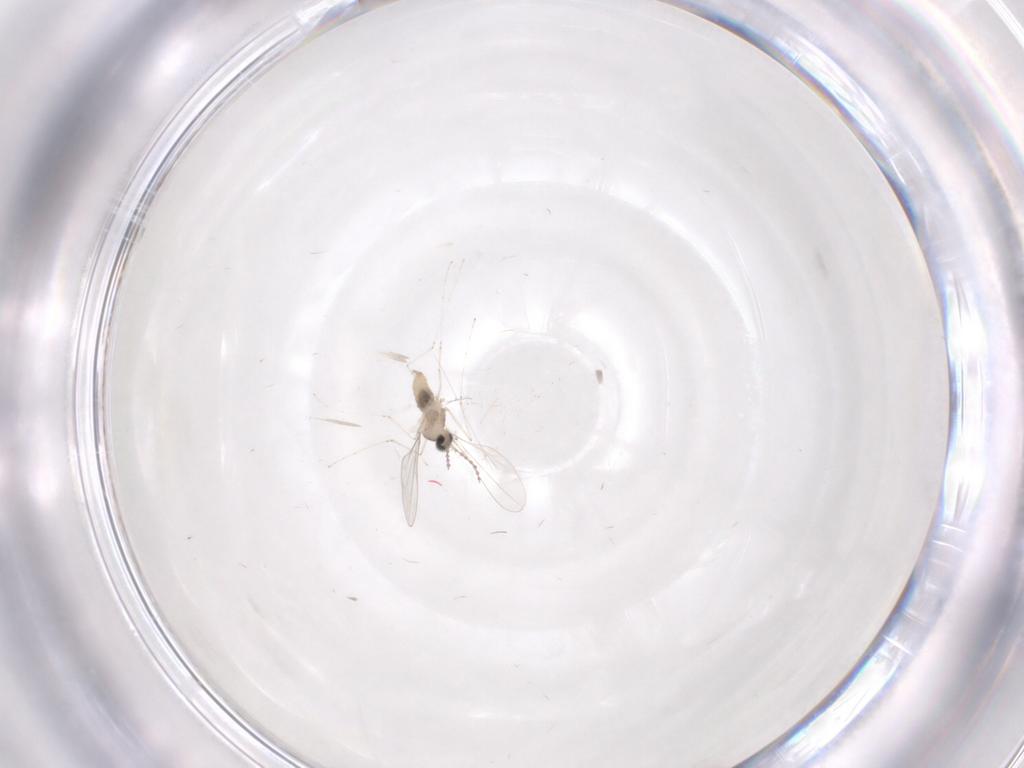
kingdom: Animalia
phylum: Arthropoda
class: Insecta
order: Diptera
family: Cecidomyiidae
